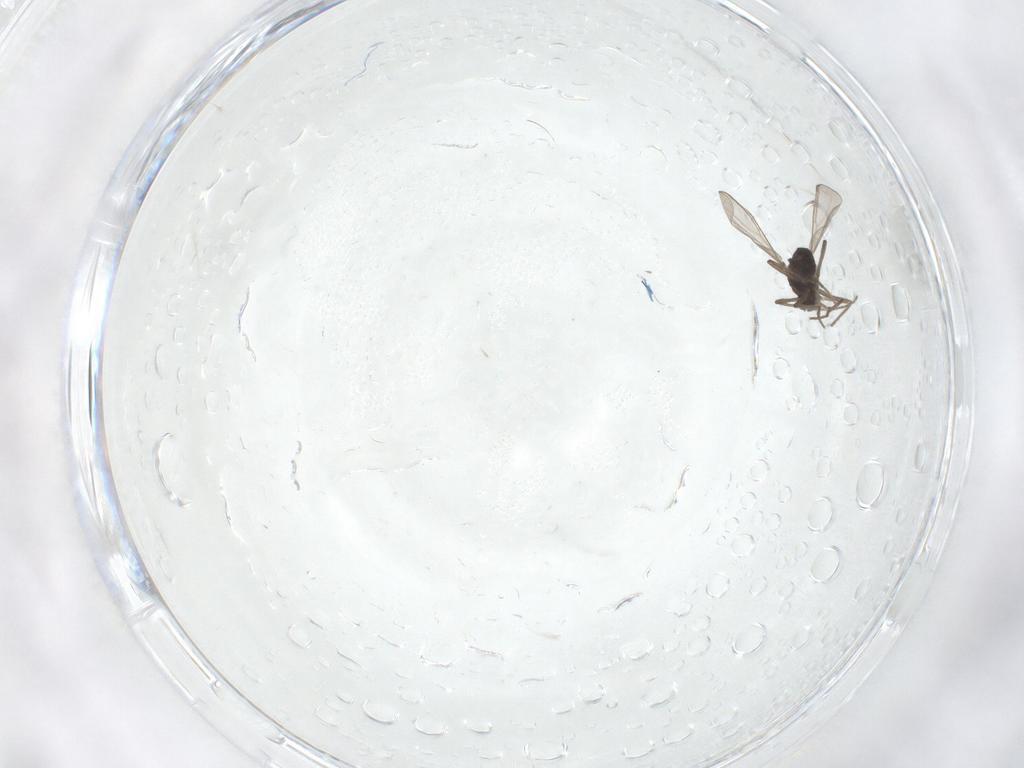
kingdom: Animalia
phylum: Arthropoda
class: Insecta
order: Diptera
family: Chironomidae
